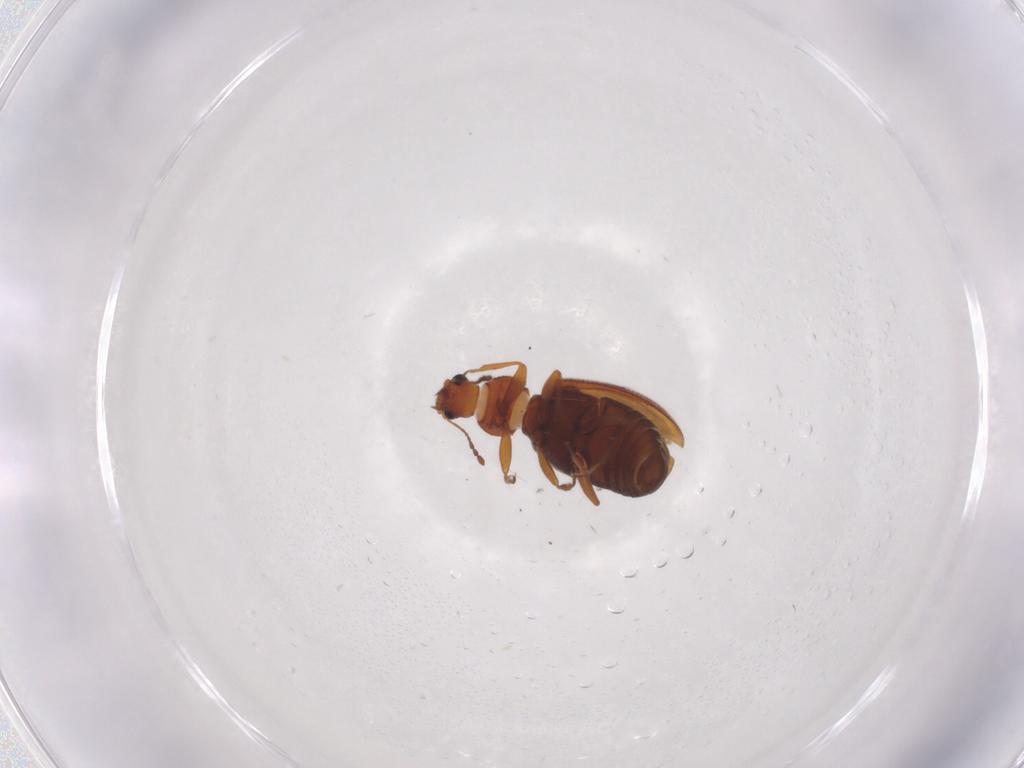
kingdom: Animalia
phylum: Arthropoda
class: Insecta
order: Coleoptera
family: Latridiidae
